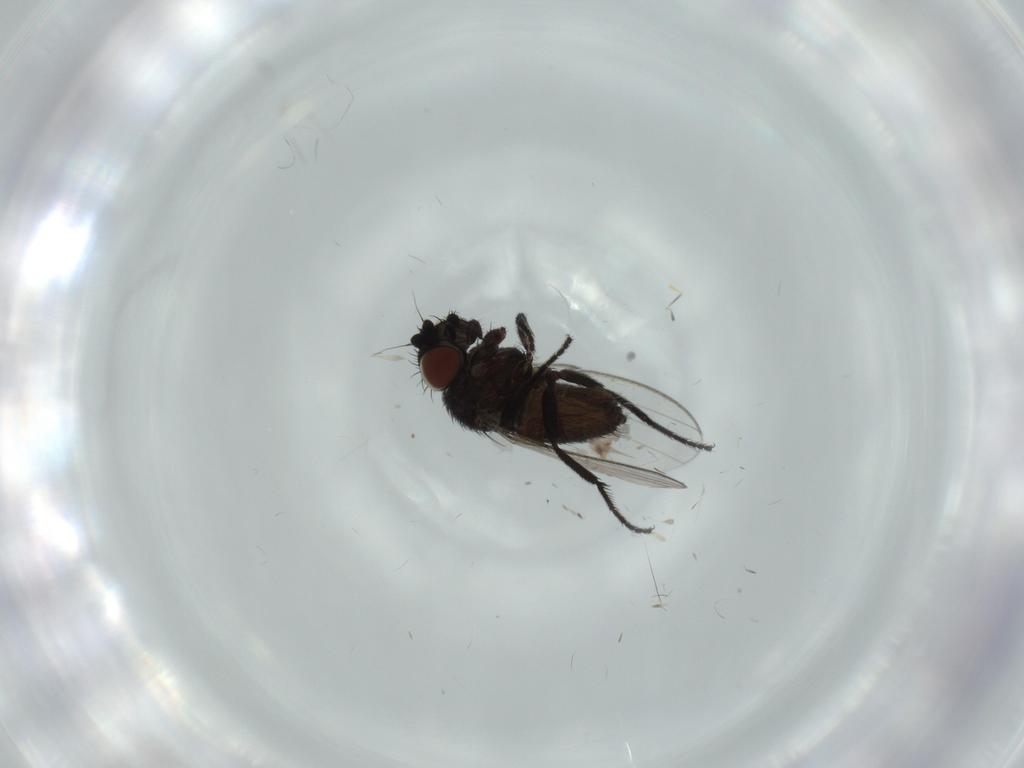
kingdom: Animalia
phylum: Arthropoda
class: Insecta
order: Diptera
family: Milichiidae
